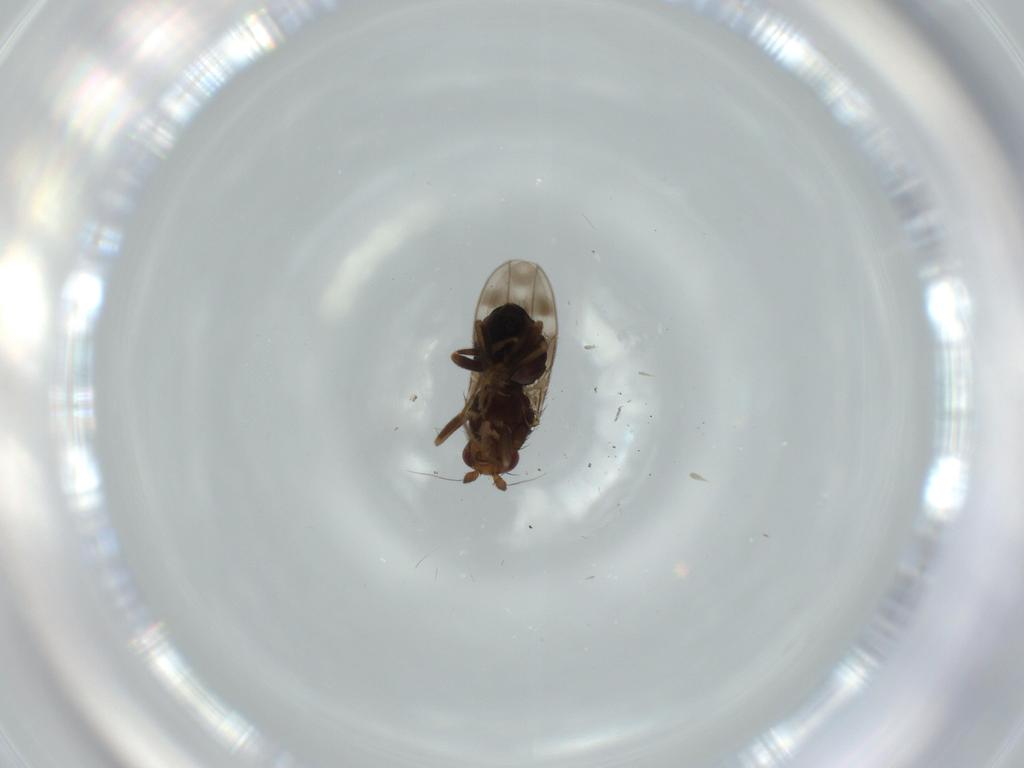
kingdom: Animalia
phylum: Arthropoda
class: Insecta
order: Diptera
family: Sphaeroceridae
